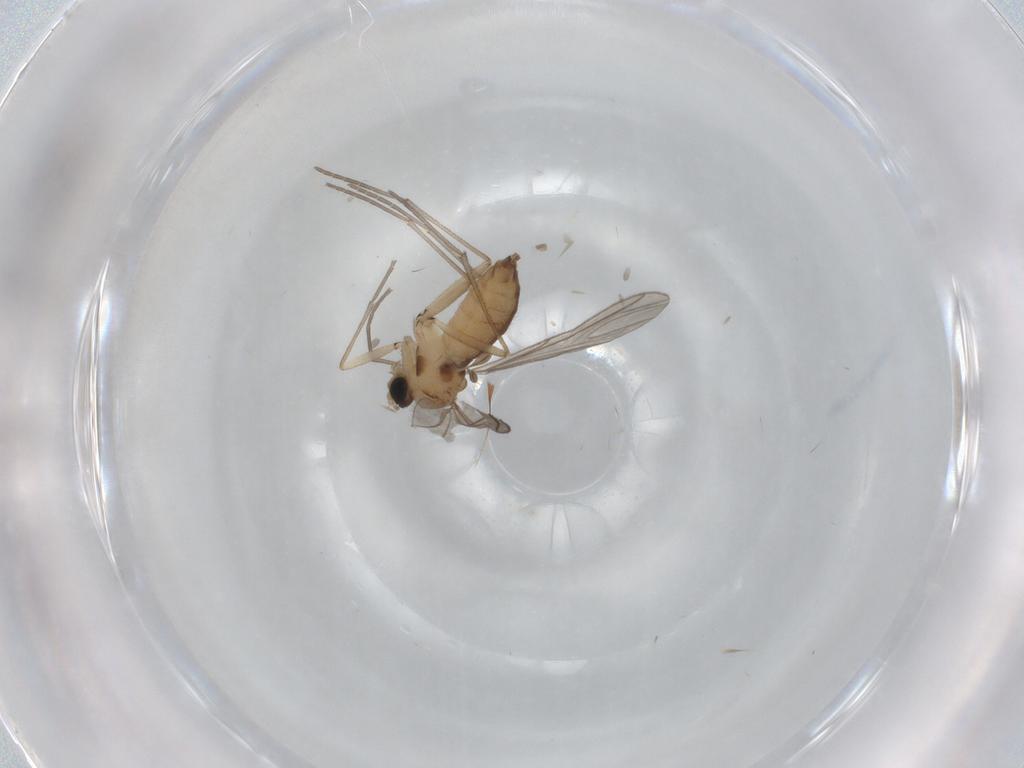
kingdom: Animalia
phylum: Arthropoda
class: Insecta
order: Diptera
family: Sciaridae
